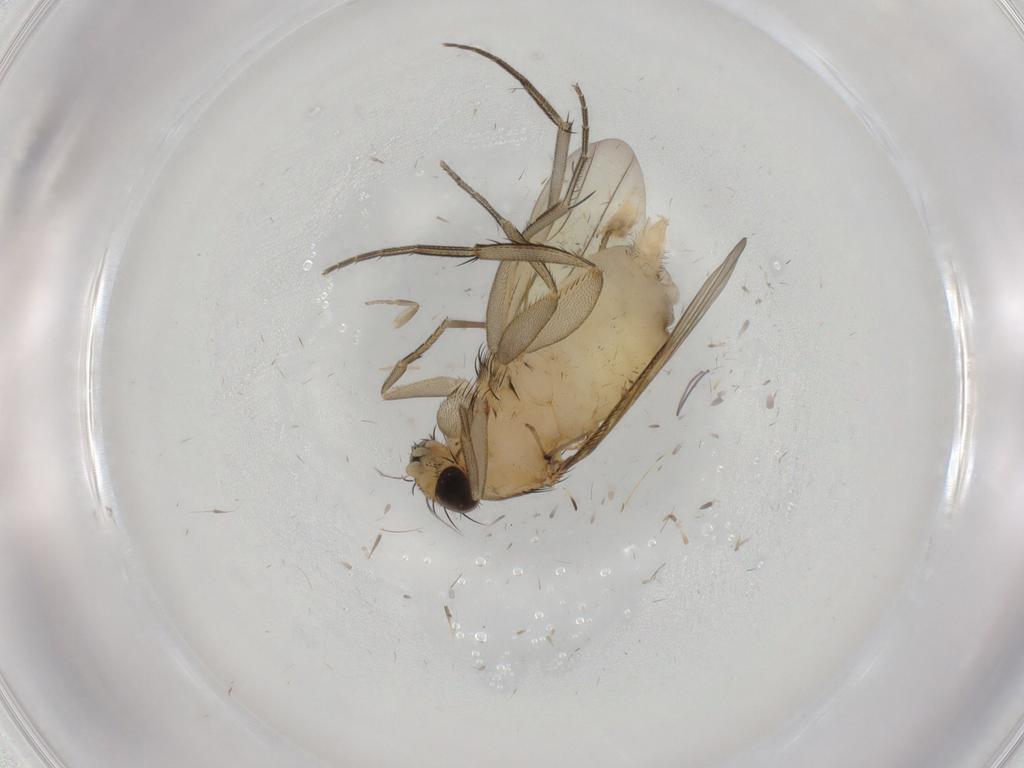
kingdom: Animalia
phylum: Arthropoda
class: Insecta
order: Diptera
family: Phoridae
